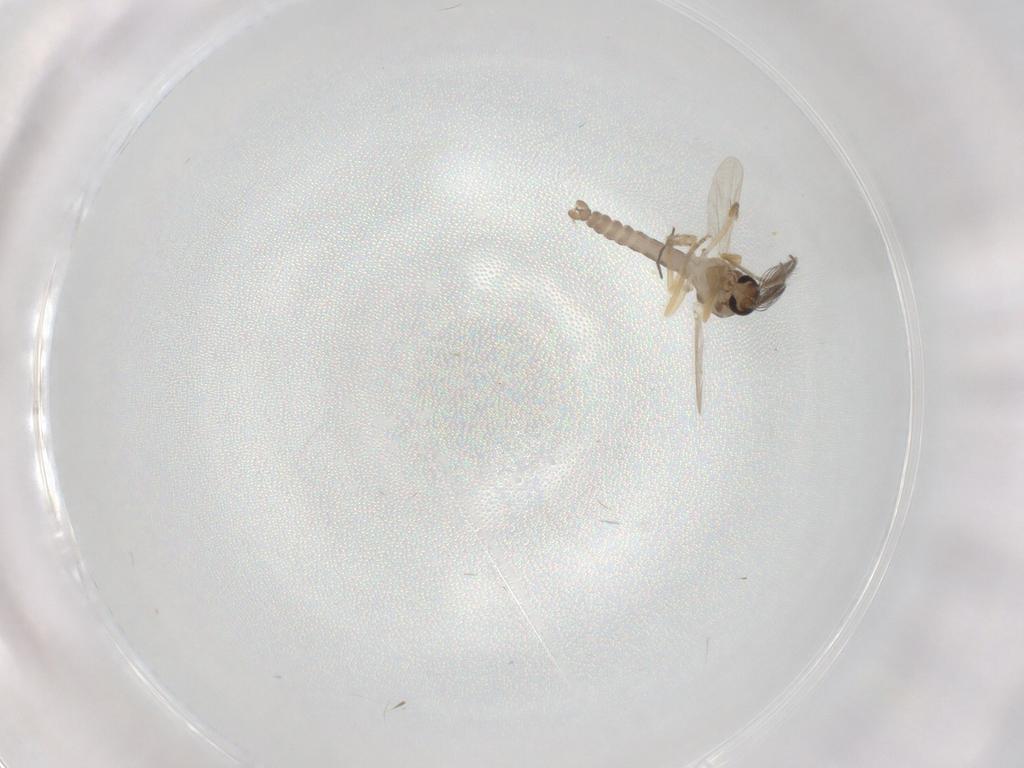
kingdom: Animalia
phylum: Arthropoda
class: Insecta
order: Diptera
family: Ceratopogonidae
